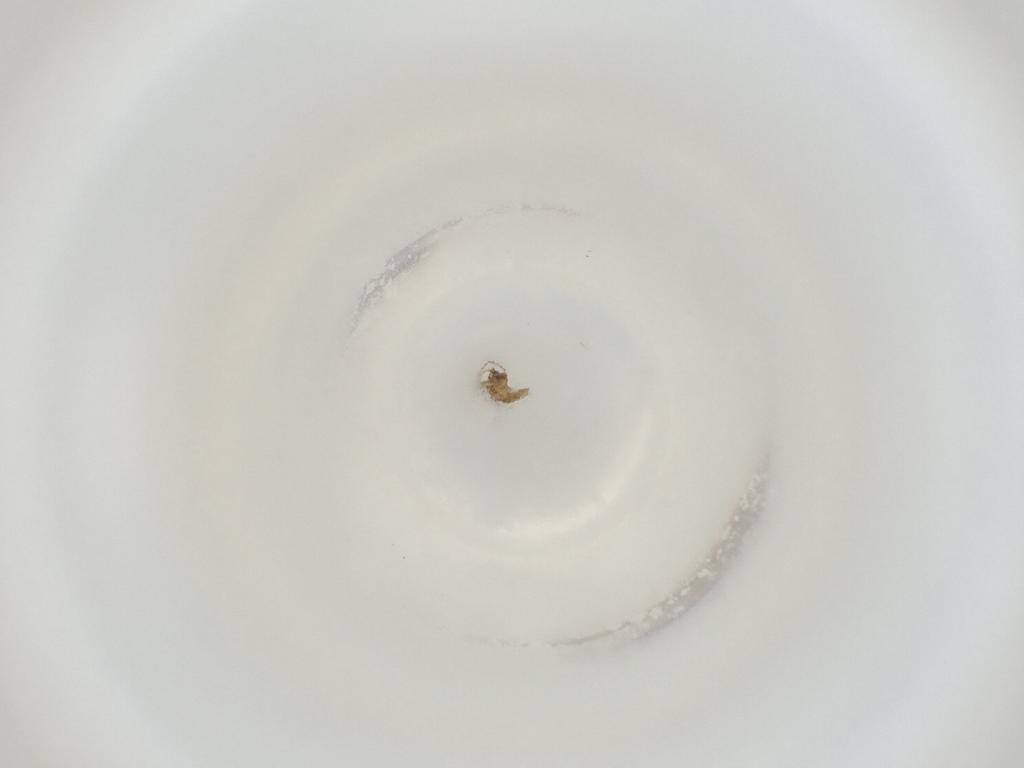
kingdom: Animalia
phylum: Arthropoda
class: Insecta
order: Diptera
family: Cecidomyiidae
